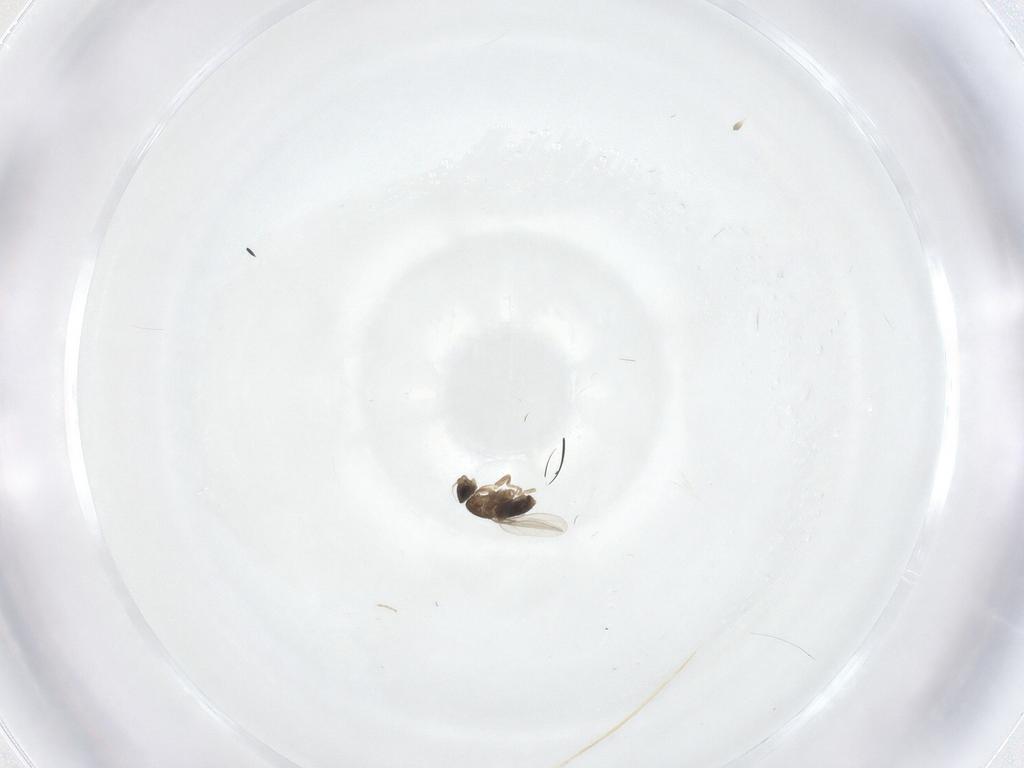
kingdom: Animalia
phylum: Arthropoda
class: Insecta
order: Diptera
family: Phoridae
